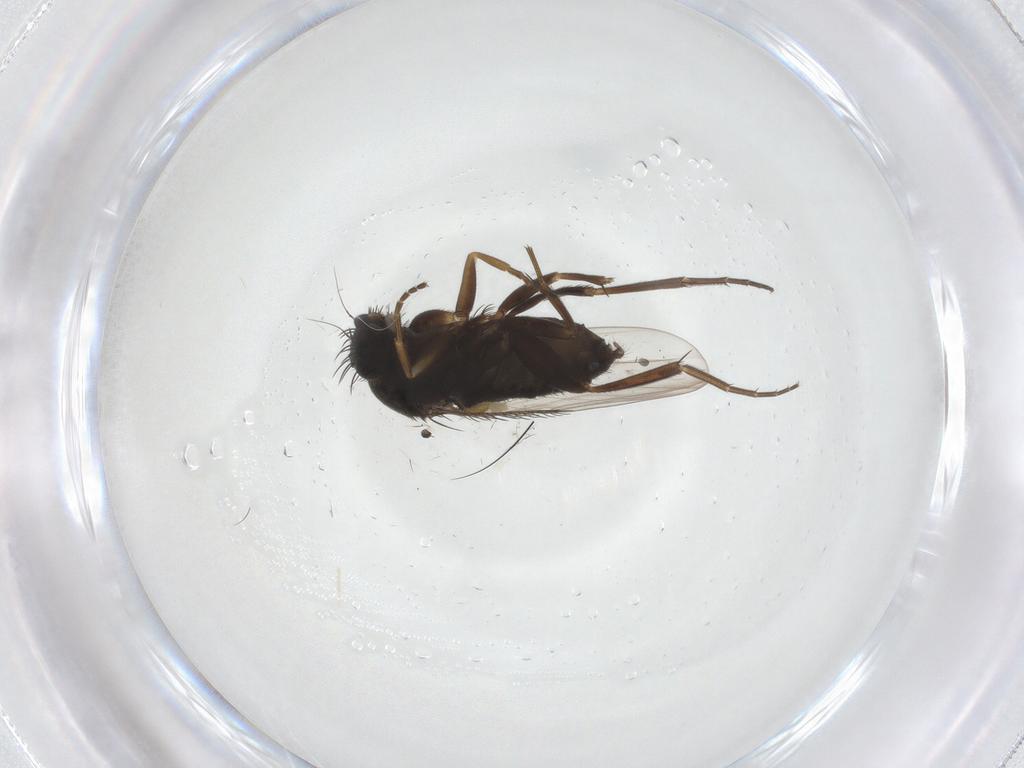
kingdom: Animalia
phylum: Arthropoda
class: Insecta
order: Diptera
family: Phoridae
